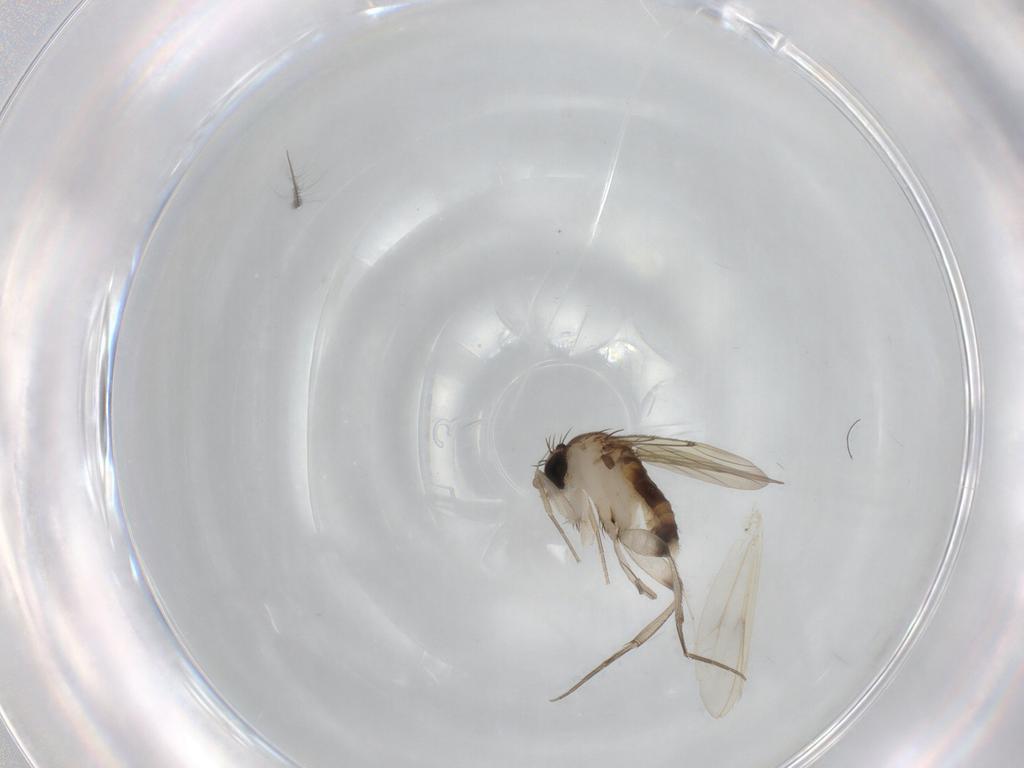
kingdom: Animalia
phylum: Arthropoda
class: Insecta
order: Diptera
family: Chironomidae
